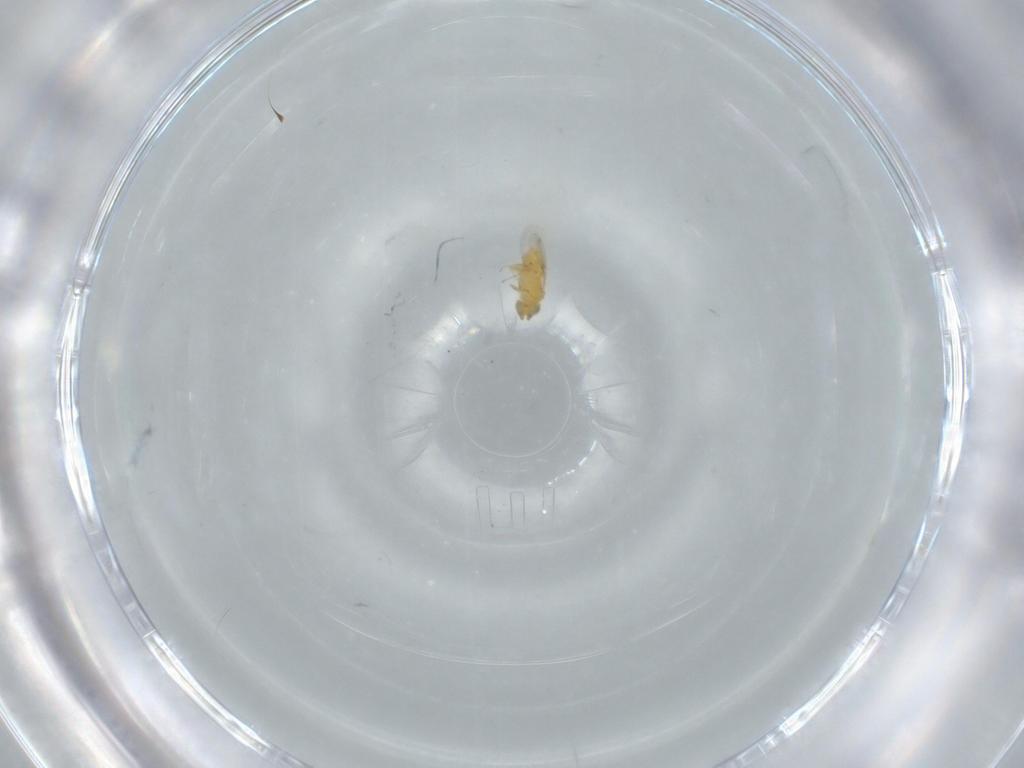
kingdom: Animalia
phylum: Arthropoda
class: Insecta
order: Hymenoptera
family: Encyrtidae
